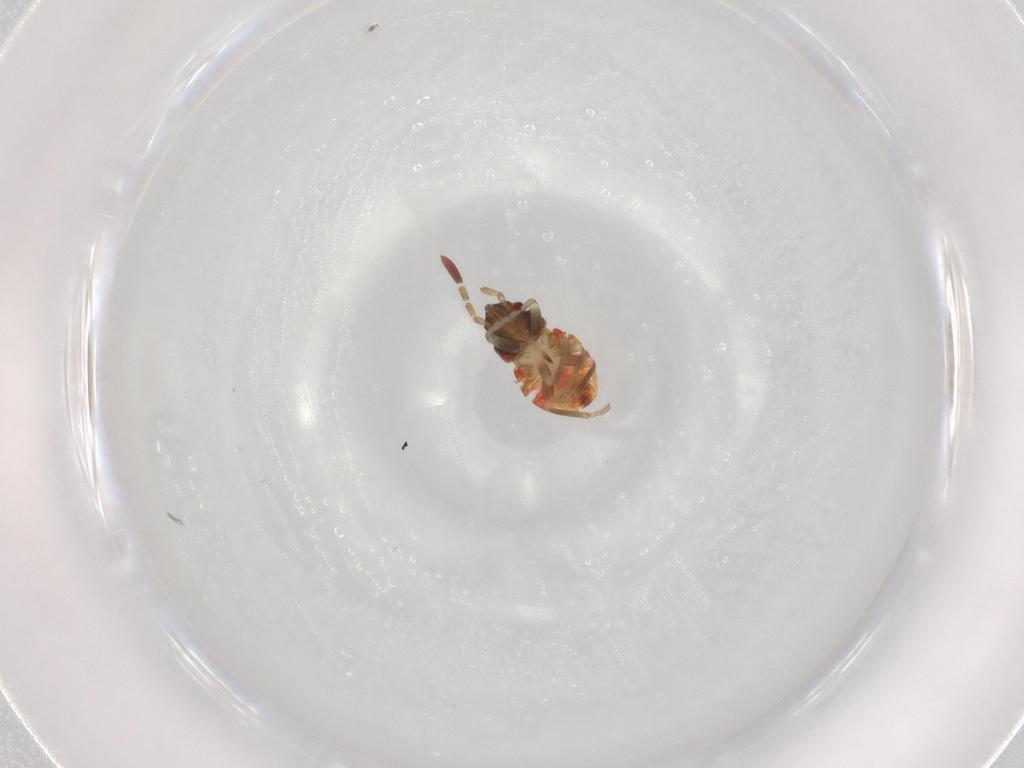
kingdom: Animalia
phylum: Arthropoda
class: Insecta
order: Hemiptera
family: Rhyparochromidae
